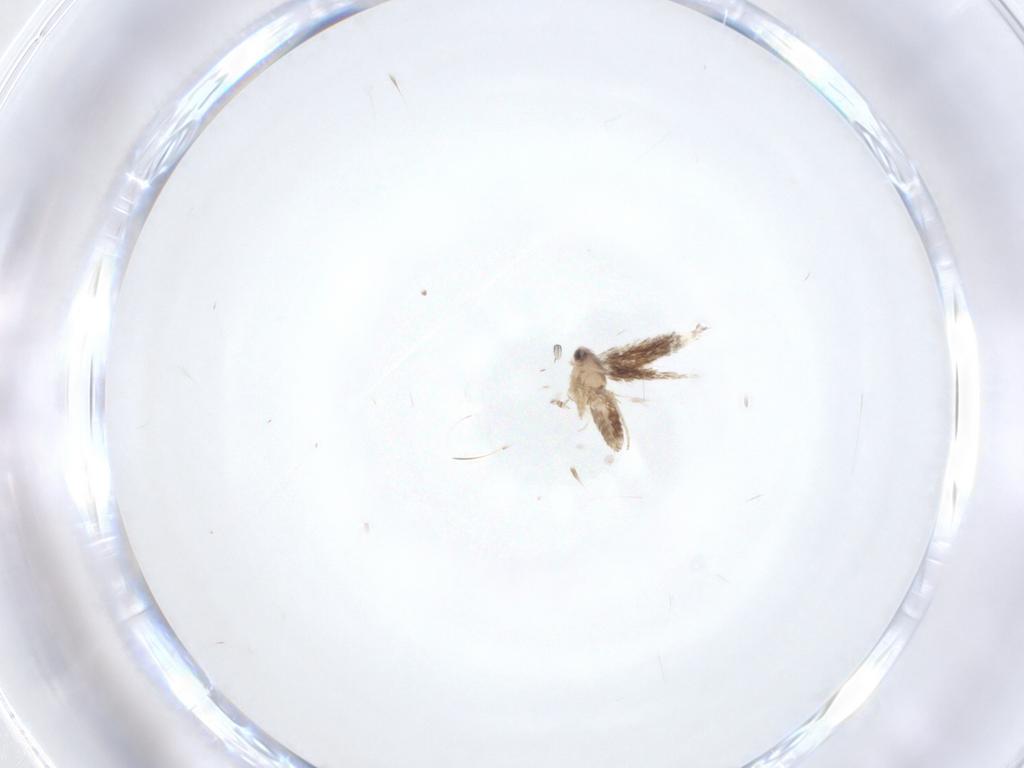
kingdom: Animalia
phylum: Arthropoda
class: Insecta
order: Lepidoptera
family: Nepticulidae
